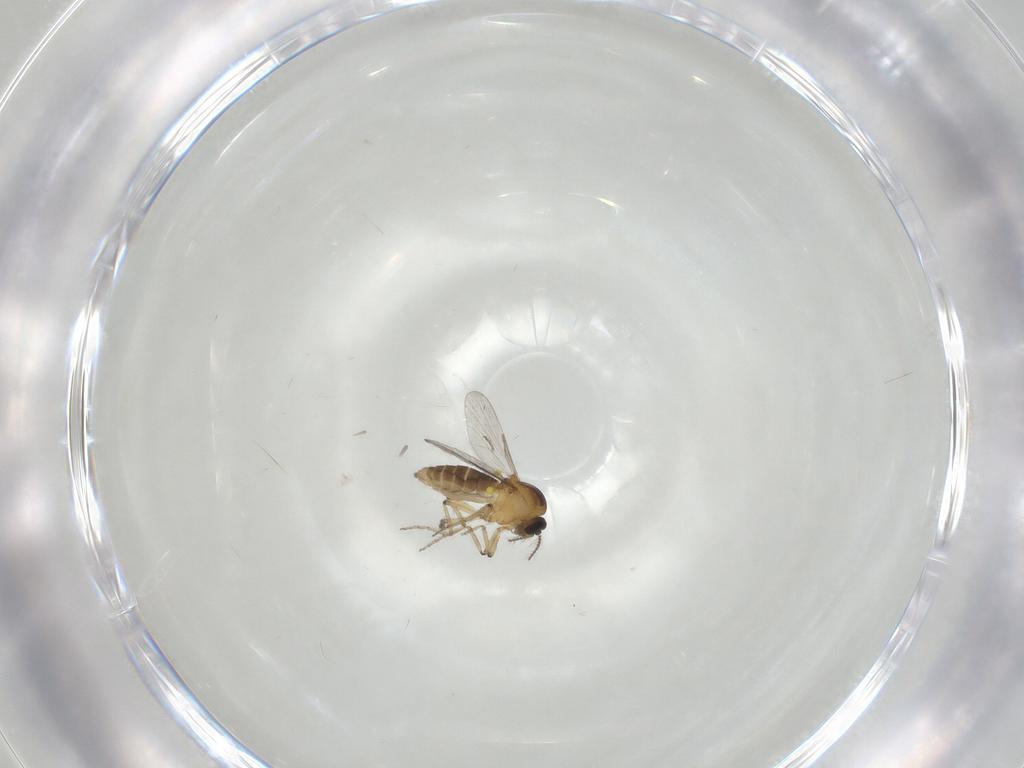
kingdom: Animalia
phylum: Arthropoda
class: Insecta
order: Diptera
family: Ceratopogonidae
